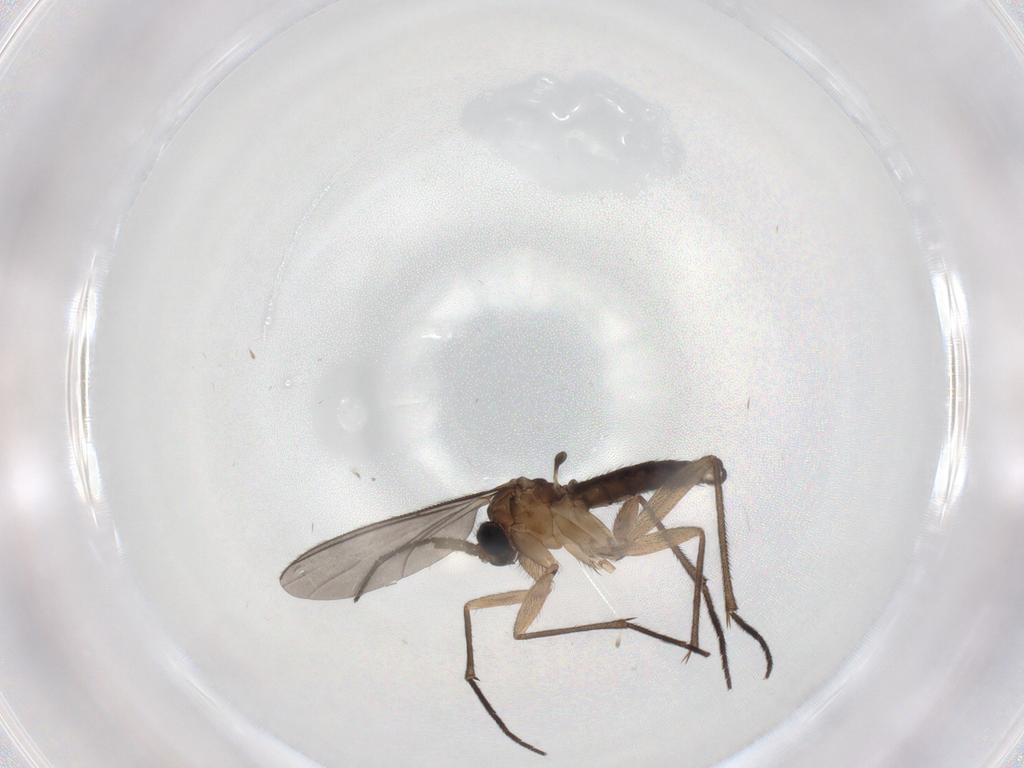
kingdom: Animalia
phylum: Arthropoda
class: Insecta
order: Diptera
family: Sciaridae
